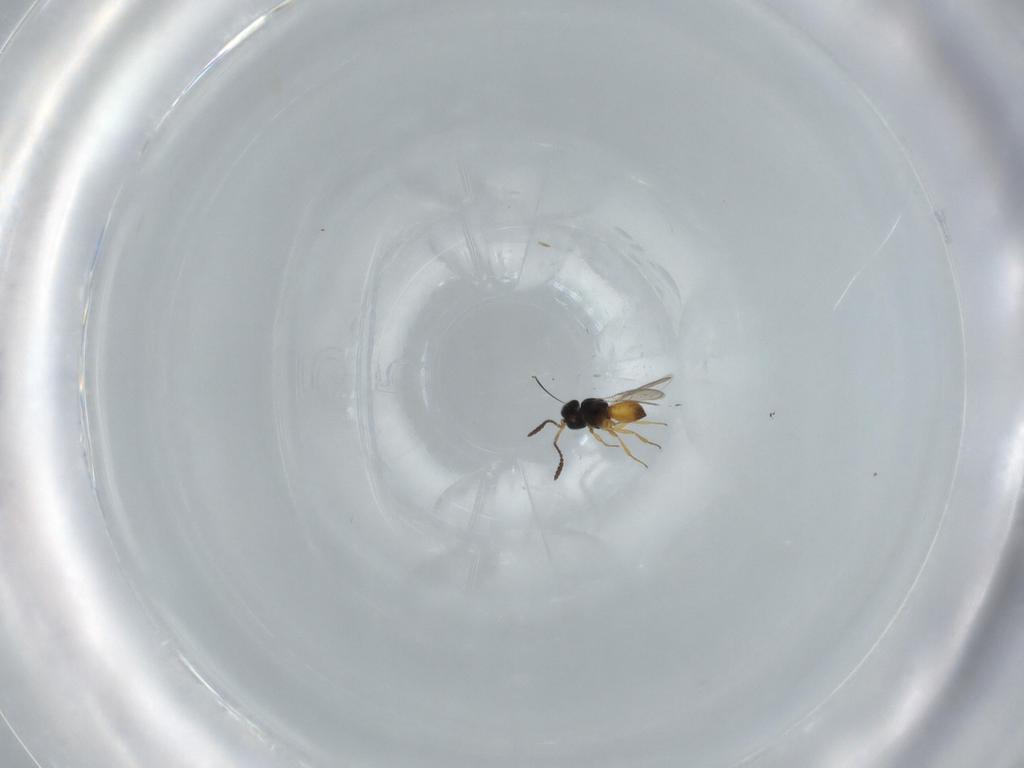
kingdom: Animalia
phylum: Arthropoda
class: Insecta
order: Hymenoptera
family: Scelionidae
